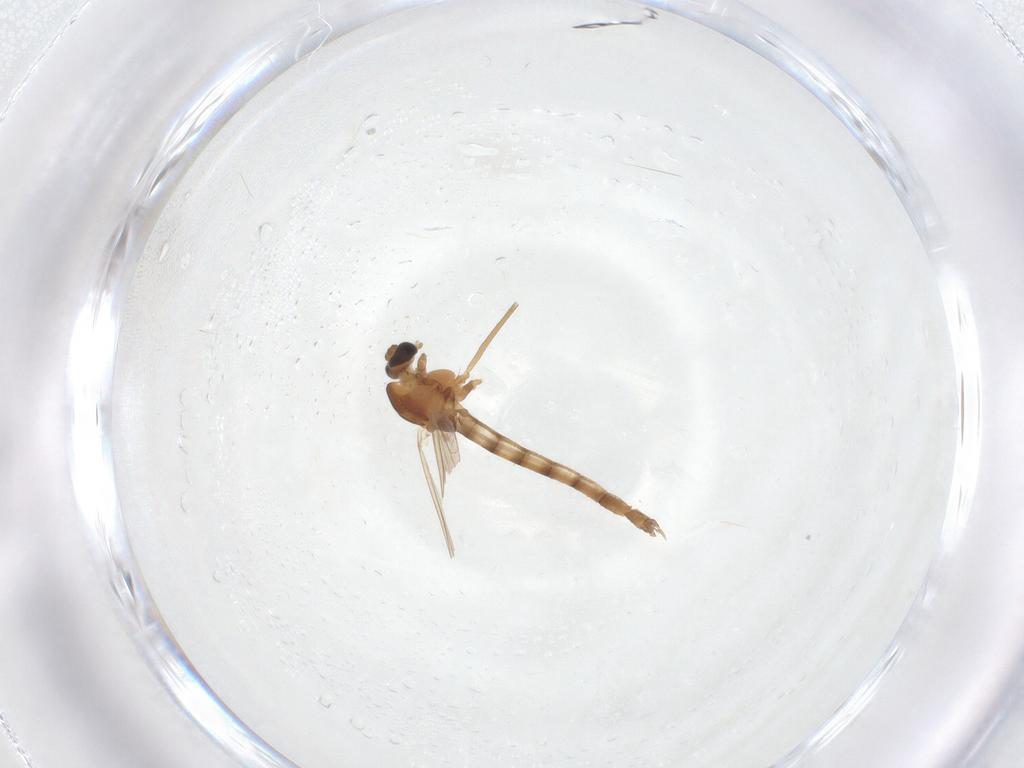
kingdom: Animalia
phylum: Arthropoda
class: Insecta
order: Diptera
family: Chironomidae
